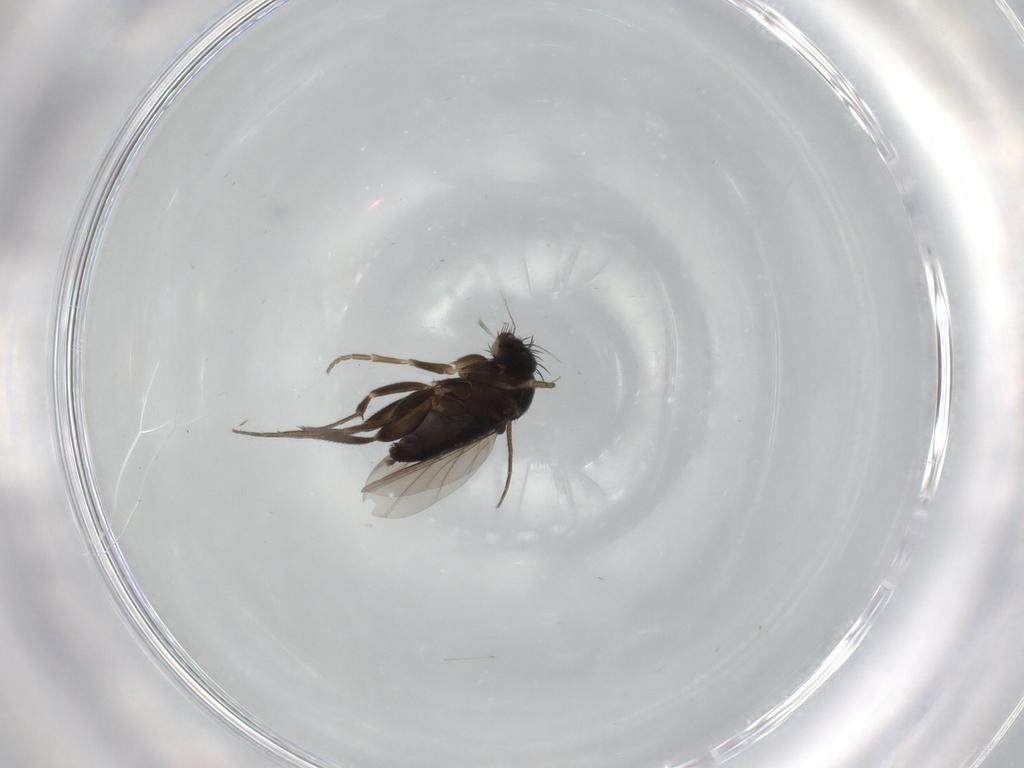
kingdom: Animalia
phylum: Arthropoda
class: Insecta
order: Diptera
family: Phoridae
